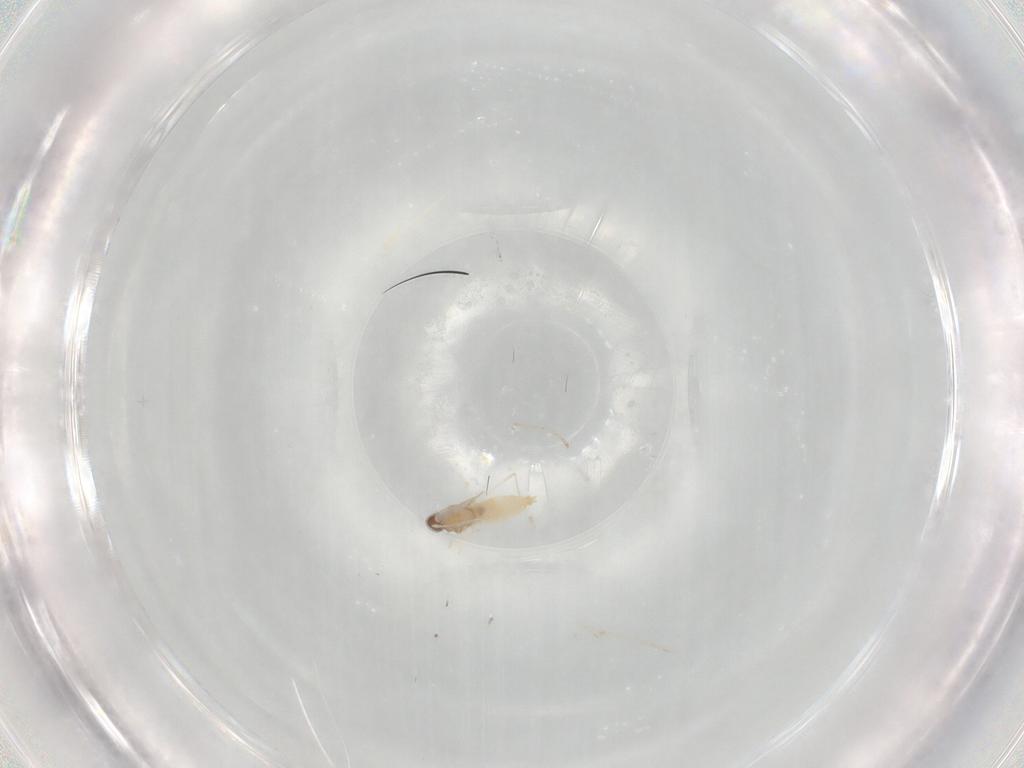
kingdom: Animalia
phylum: Arthropoda
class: Insecta
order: Diptera
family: Cecidomyiidae
